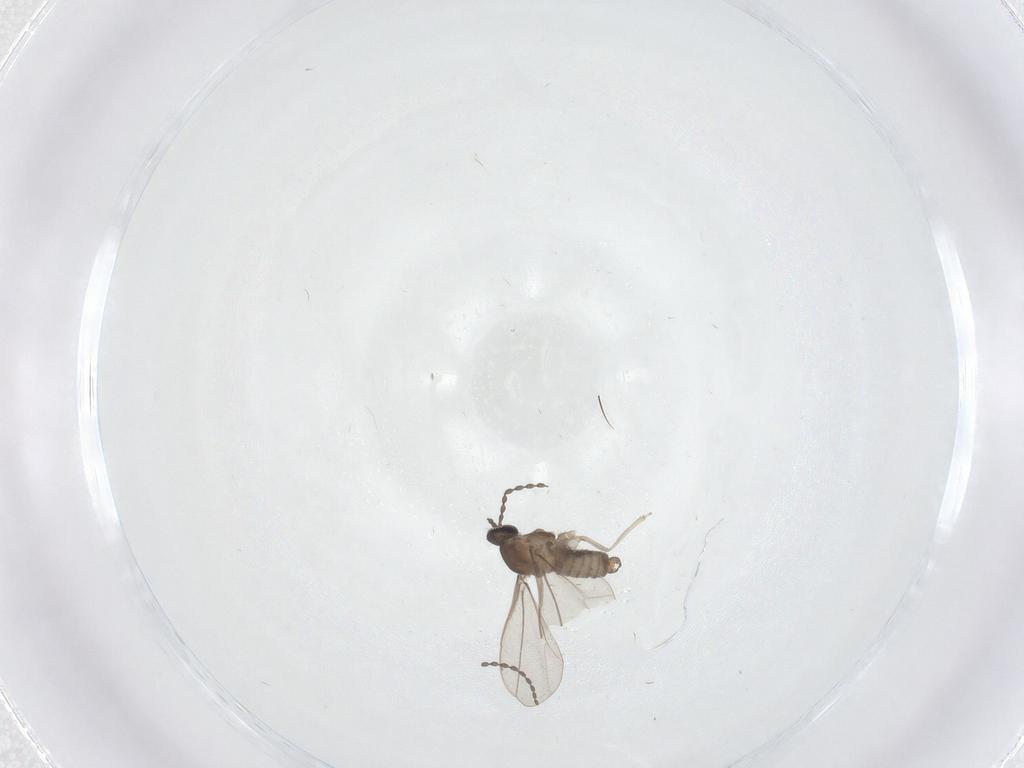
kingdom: Animalia
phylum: Arthropoda
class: Insecta
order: Diptera
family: Cecidomyiidae
